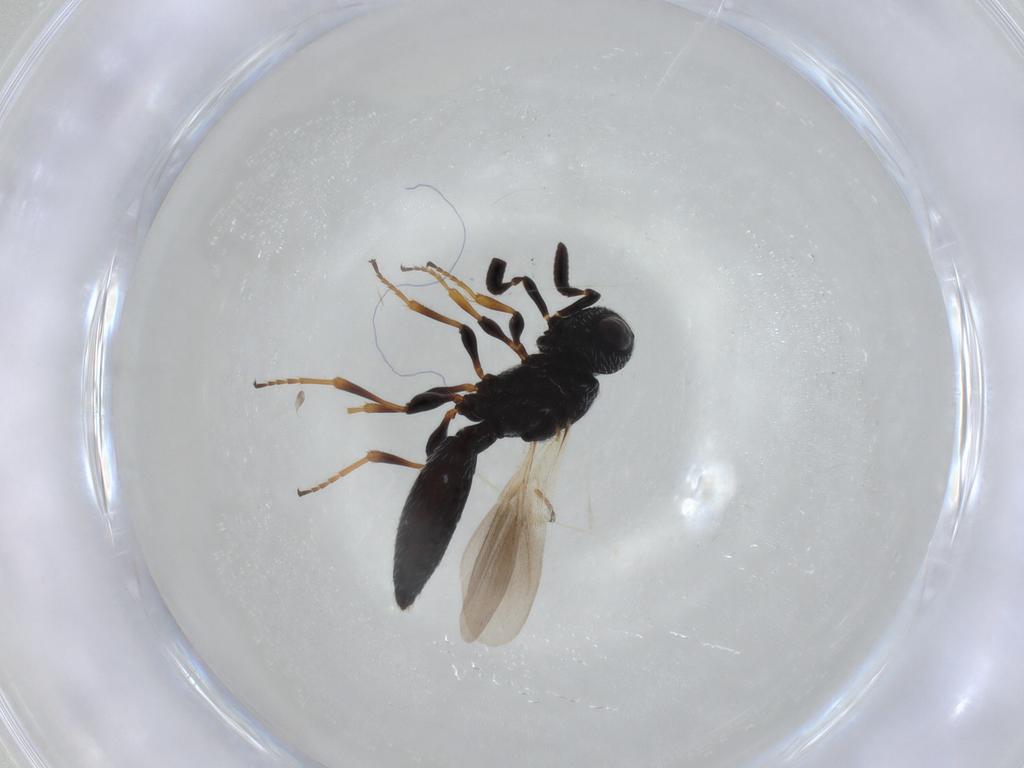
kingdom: Animalia
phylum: Arthropoda
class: Insecta
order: Hymenoptera
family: Scelionidae
